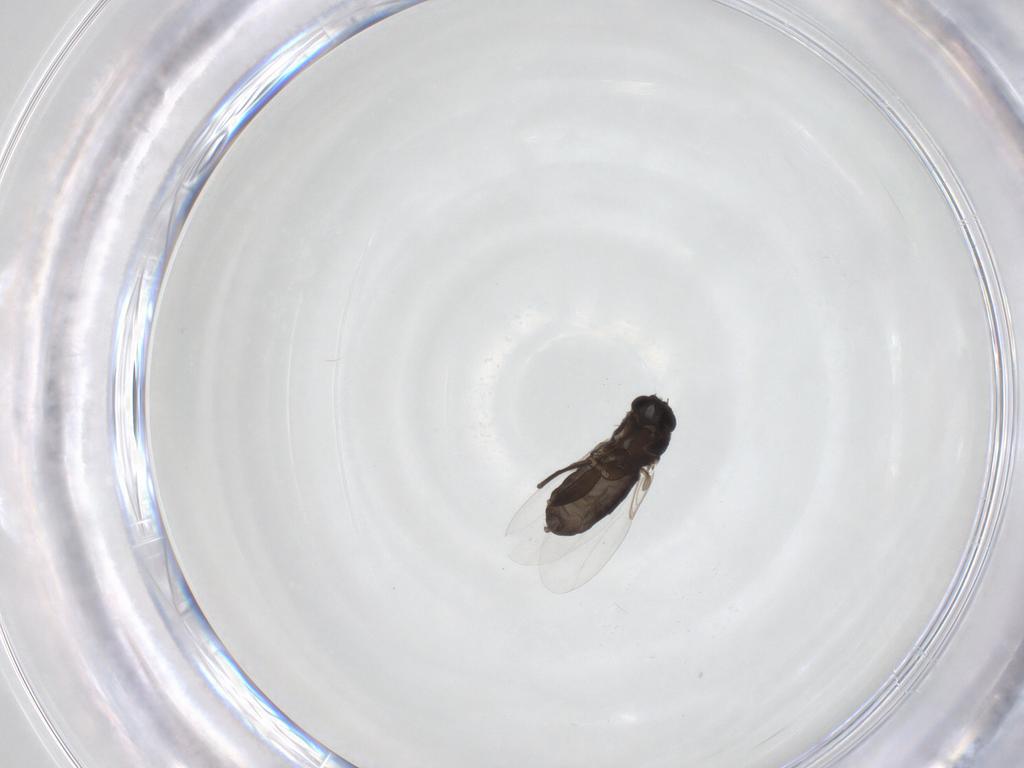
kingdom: Animalia
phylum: Arthropoda
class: Insecta
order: Diptera
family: Phoridae
